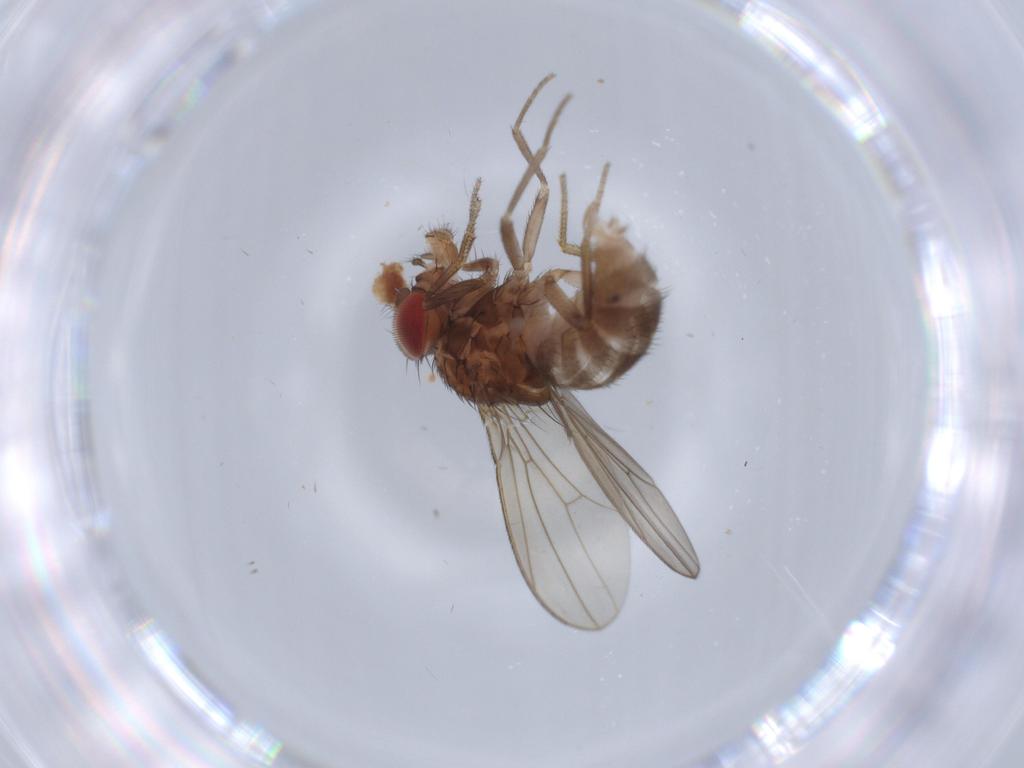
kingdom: Animalia
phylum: Arthropoda
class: Insecta
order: Diptera
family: Drosophilidae
